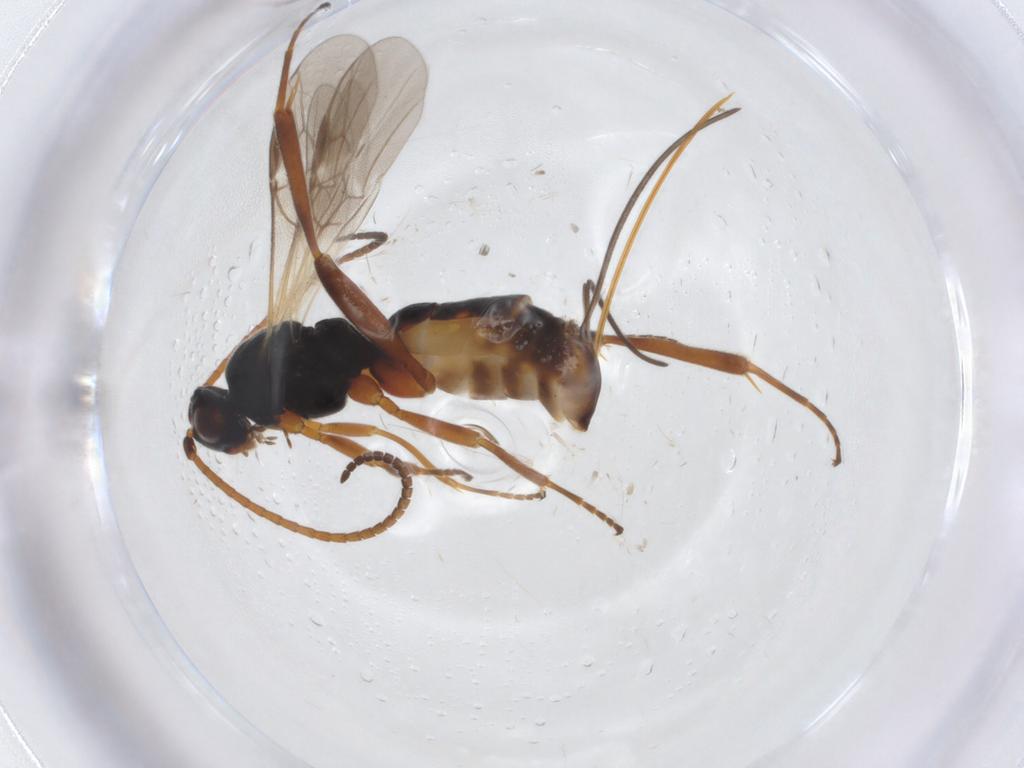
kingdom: Animalia
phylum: Arthropoda
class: Insecta
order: Hymenoptera
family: Braconidae
